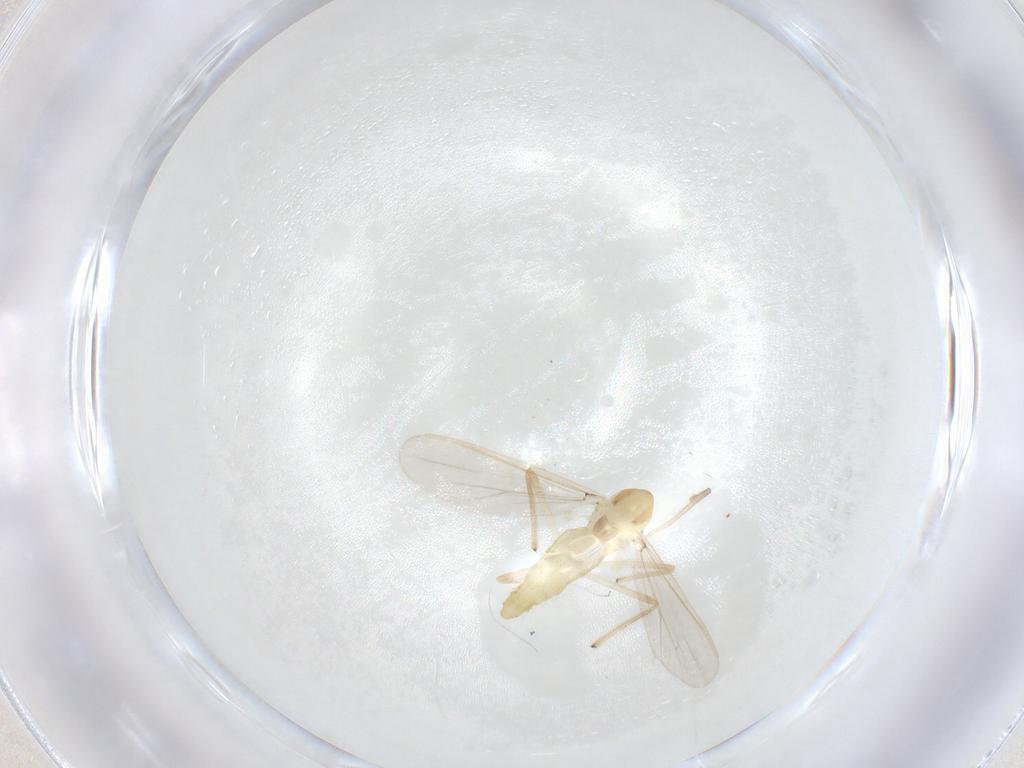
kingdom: Animalia
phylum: Arthropoda
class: Insecta
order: Diptera
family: Chironomidae
